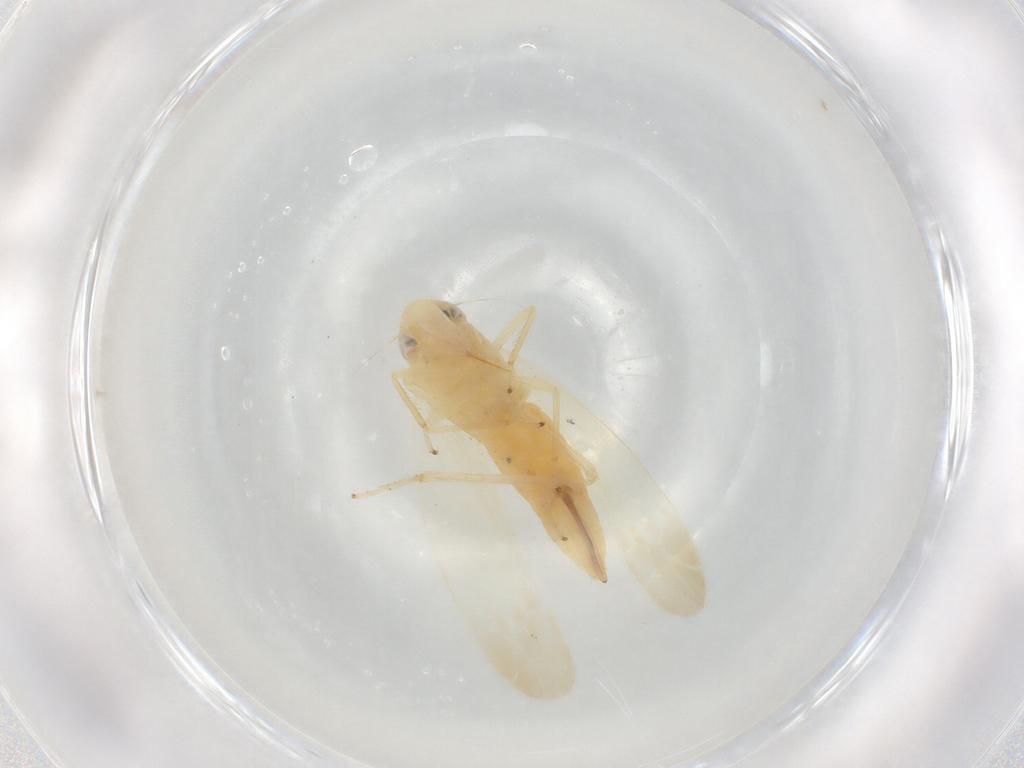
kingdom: Animalia
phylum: Arthropoda
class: Insecta
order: Hemiptera
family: Cicadellidae
